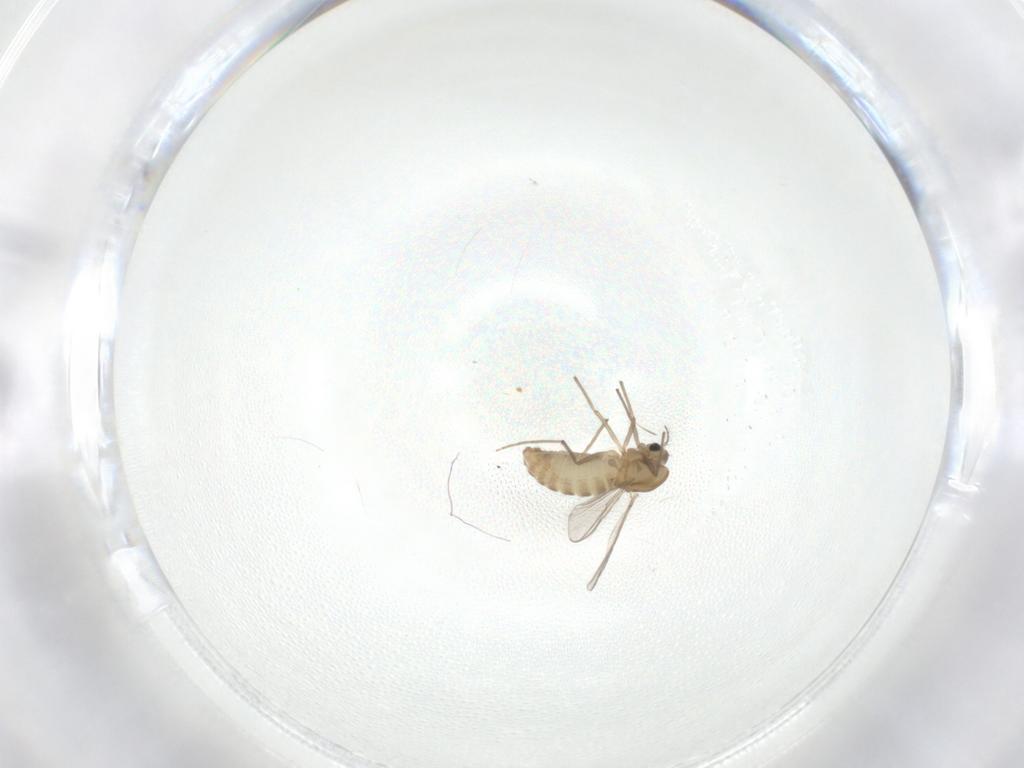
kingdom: Animalia
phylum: Arthropoda
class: Insecta
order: Diptera
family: Chironomidae
